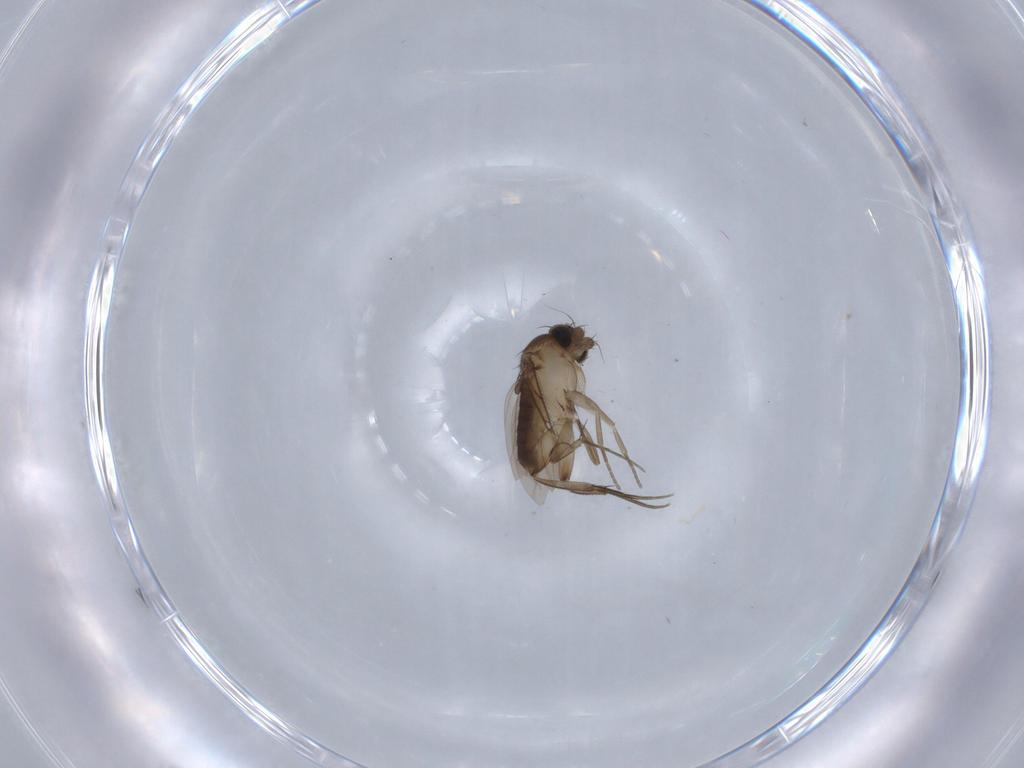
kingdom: Animalia
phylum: Arthropoda
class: Insecta
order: Diptera
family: Phoridae
